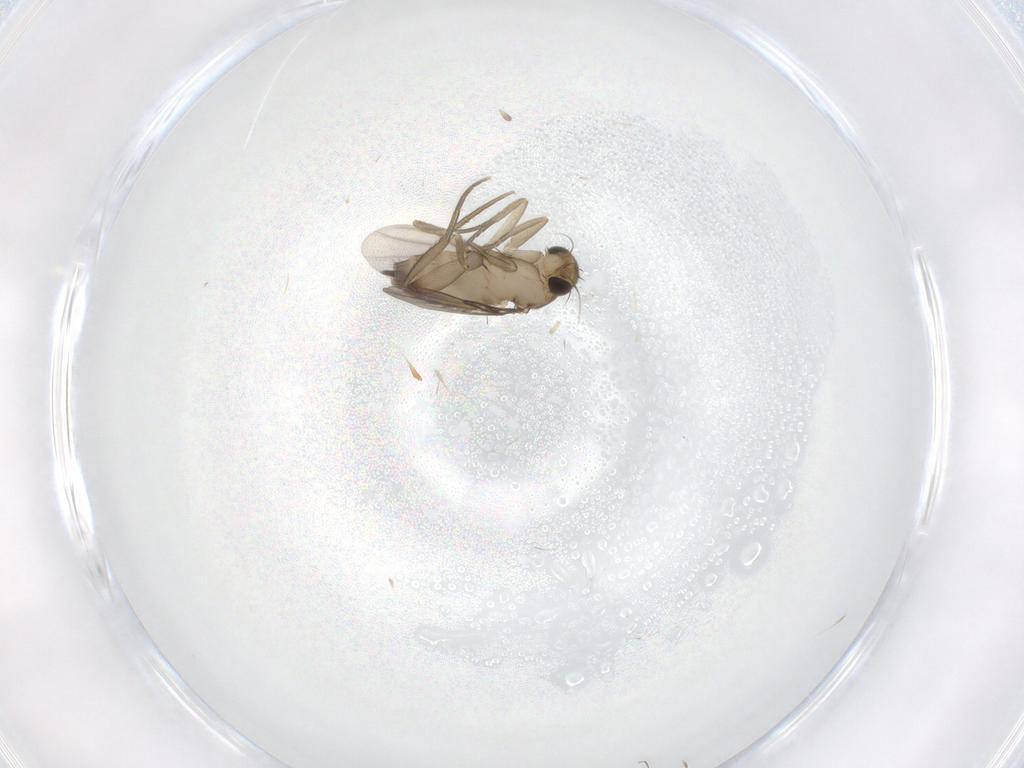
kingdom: Animalia
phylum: Arthropoda
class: Insecta
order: Diptera
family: Phoridae
